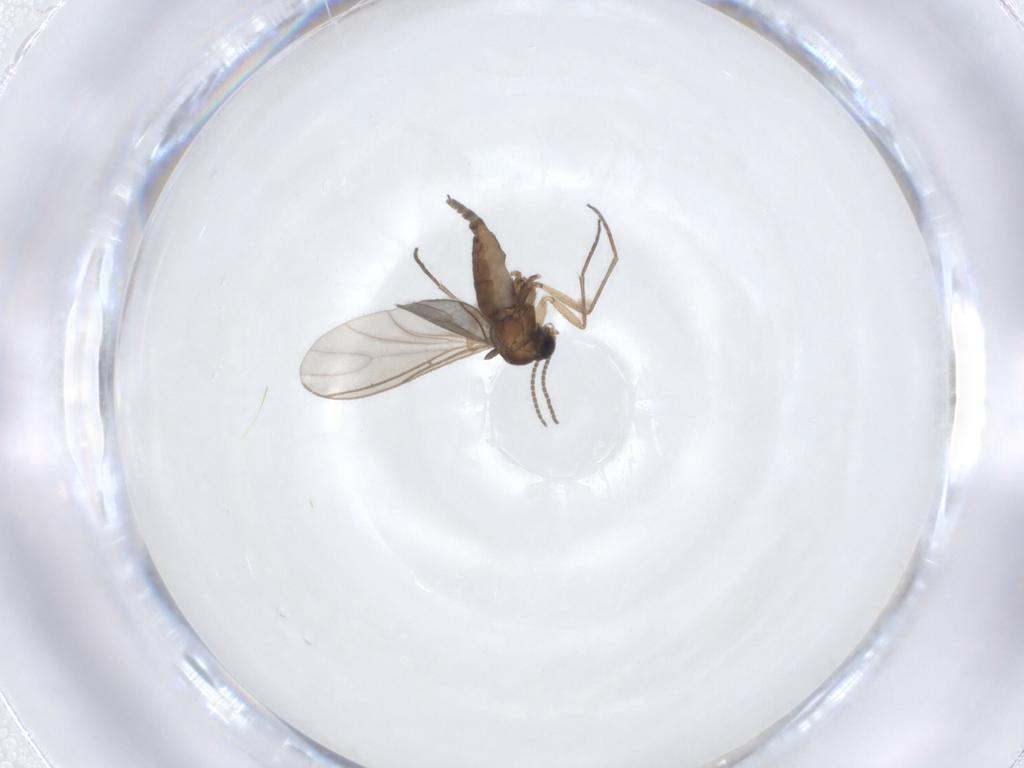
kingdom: Animalia
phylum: Arthropoda
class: Insecta
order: Diptera
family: Sciaridae
